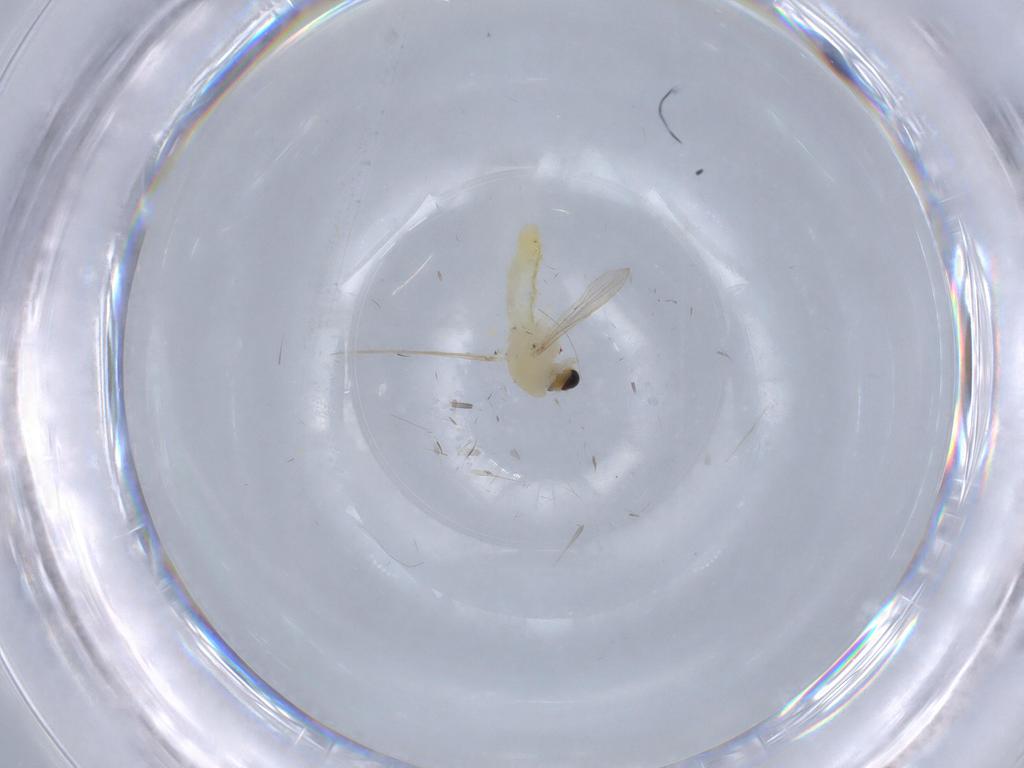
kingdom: Animalia
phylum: Arthropoda
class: Insecta
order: Diptera
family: Chironomidae
